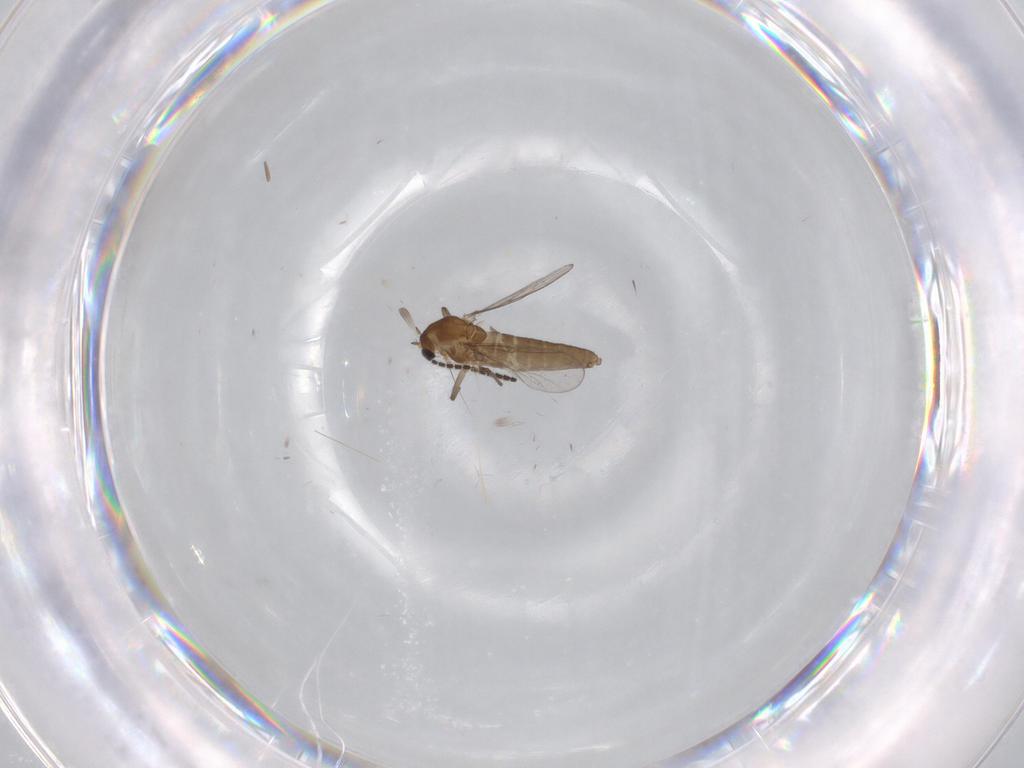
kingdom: Animalia
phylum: Arthropoda
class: Insecta
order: Diptera
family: Chironomidae
